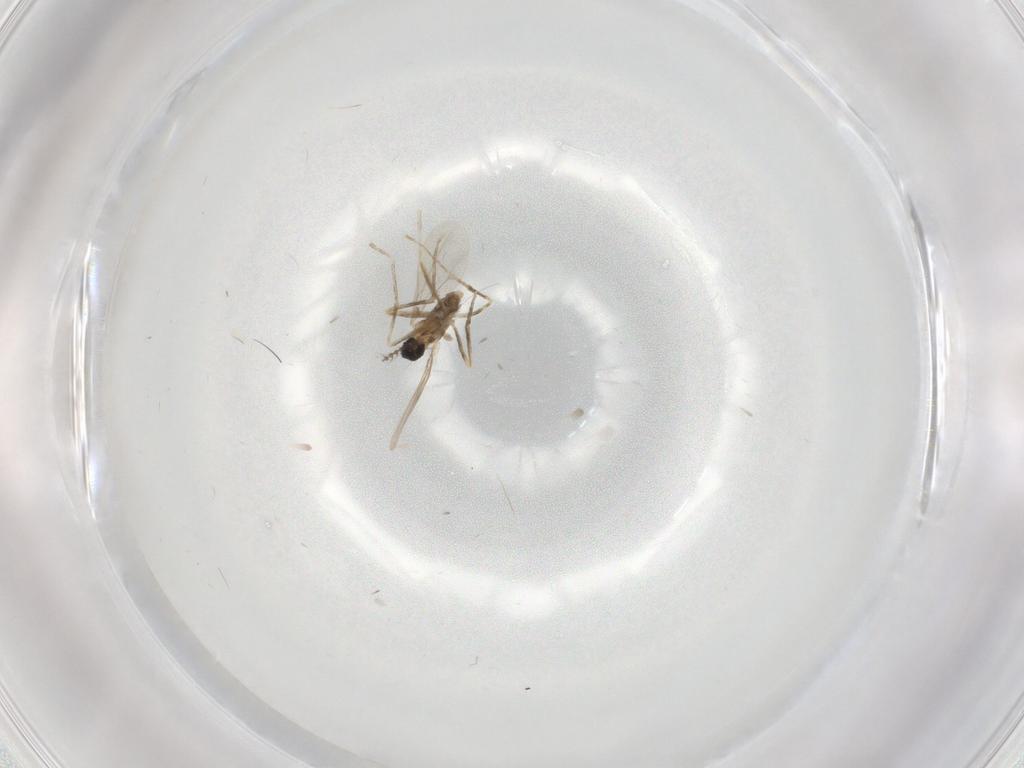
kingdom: Animalia
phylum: Arthropoda
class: Insecta
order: Diptera
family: Cecidomyiidae
